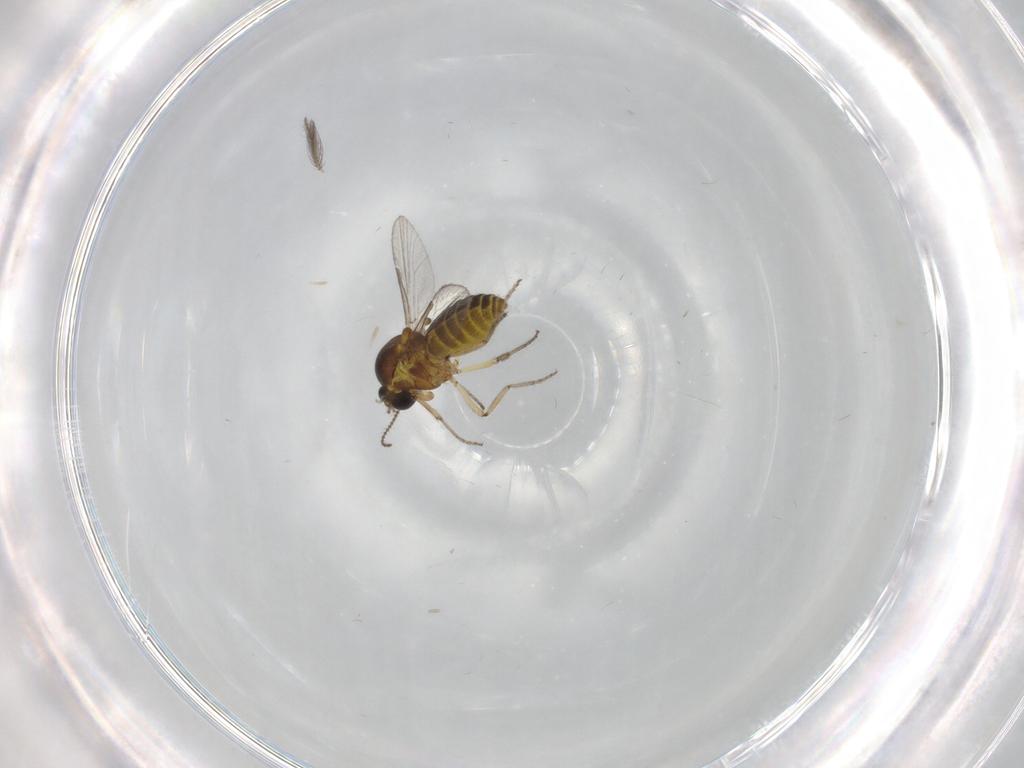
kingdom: Animalia
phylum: Arthropoda
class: Insecta
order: Diptera
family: Ceratopogonidae
